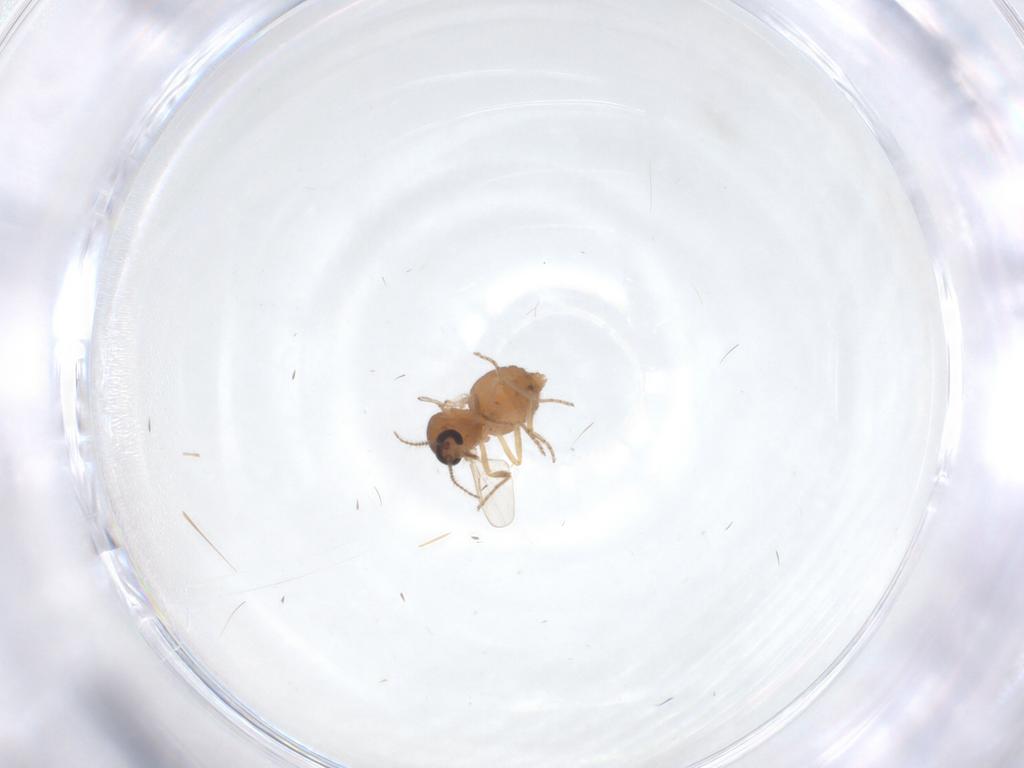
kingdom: Animalia
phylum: Arthropoda
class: Insecta
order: Diptera
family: Ceratopogonidae
